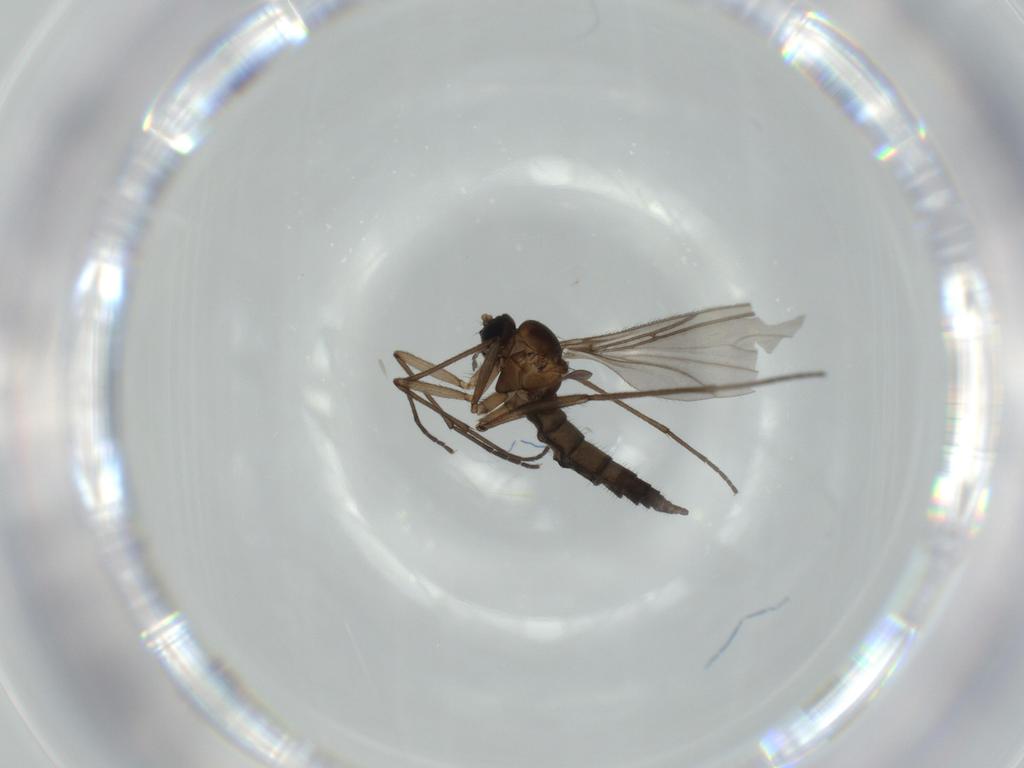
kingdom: Animalia
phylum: Arthropoda
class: Insecta
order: Diptera
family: Sciaridae
